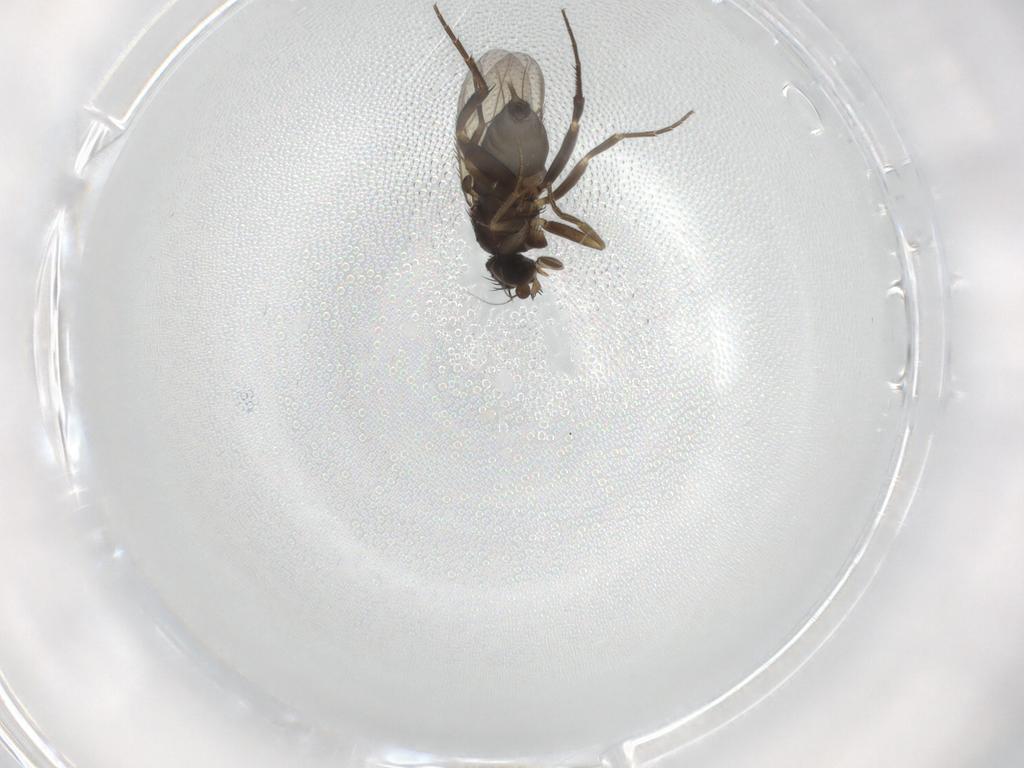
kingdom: Animalia
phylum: Arthropoda
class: Insecta
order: Diptera
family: Phoridae
